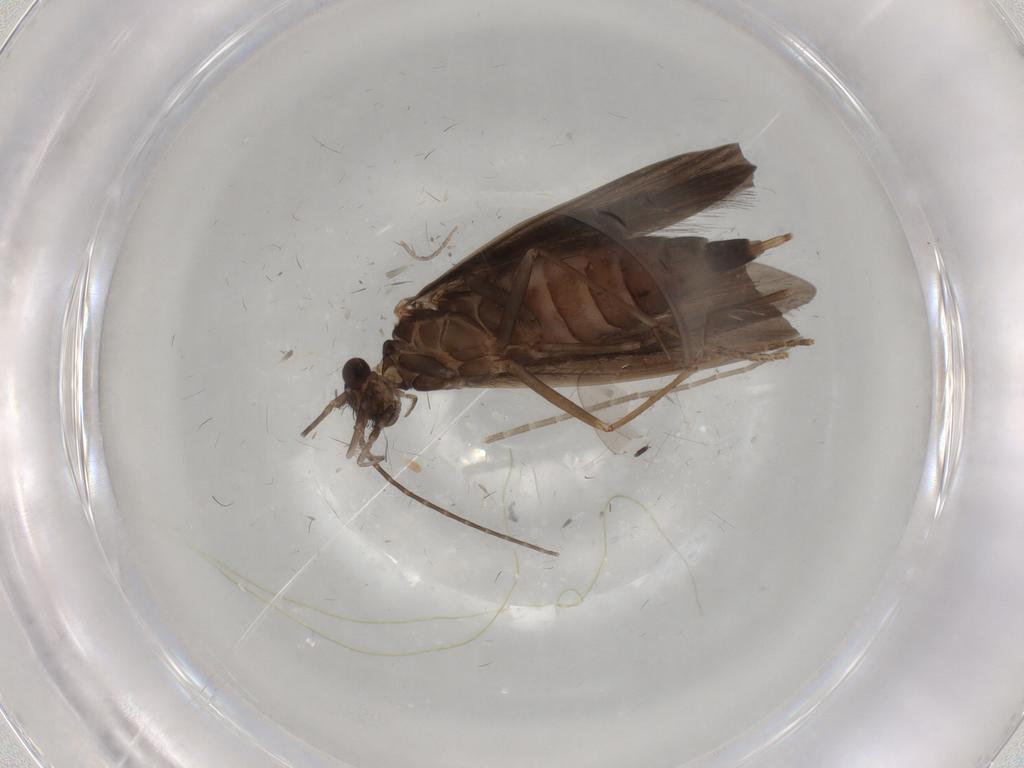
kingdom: Animalia
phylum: Arthropoda
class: Insecta
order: Trichoptera
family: Xiphocentronidae
